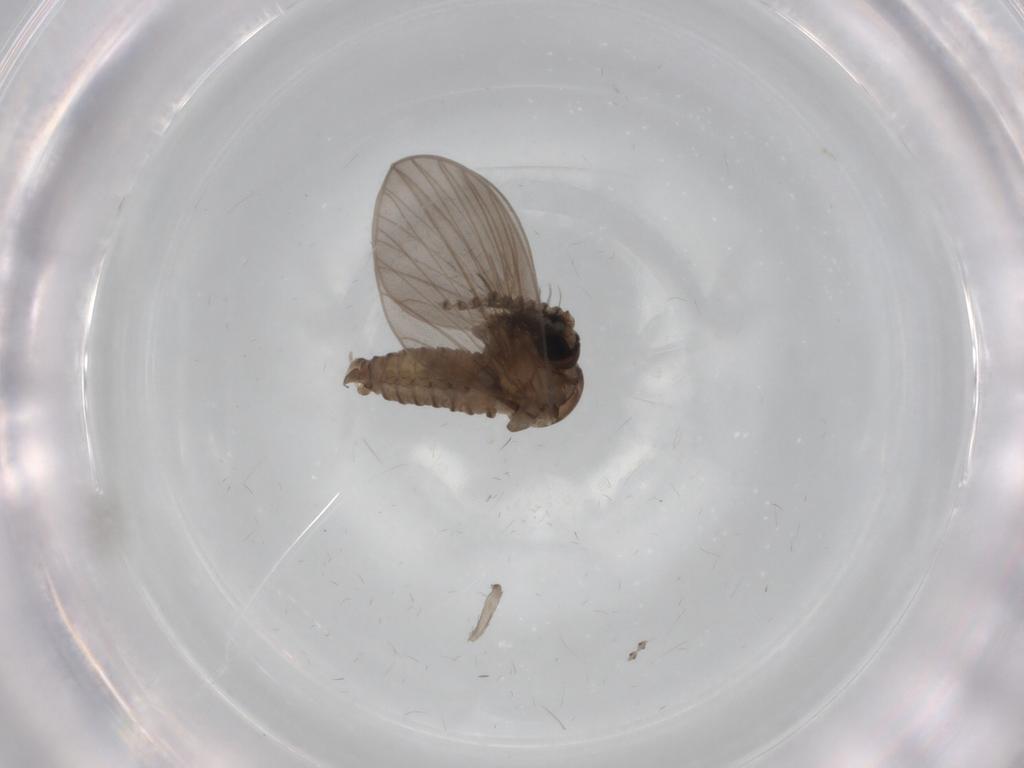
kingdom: Animalia
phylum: Arthropoda
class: Insecta
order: Diptera
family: Psychodidae
